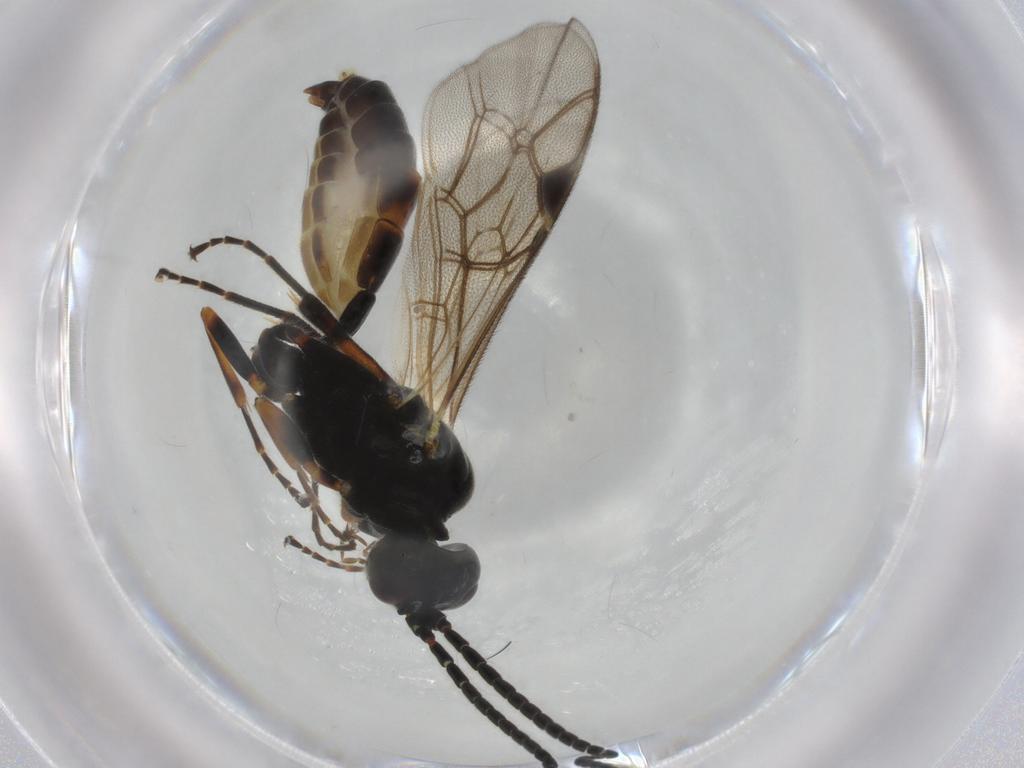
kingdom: Animalia
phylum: Arthropoda
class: Insecta
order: Hymenoptera
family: Ichneumonidae
